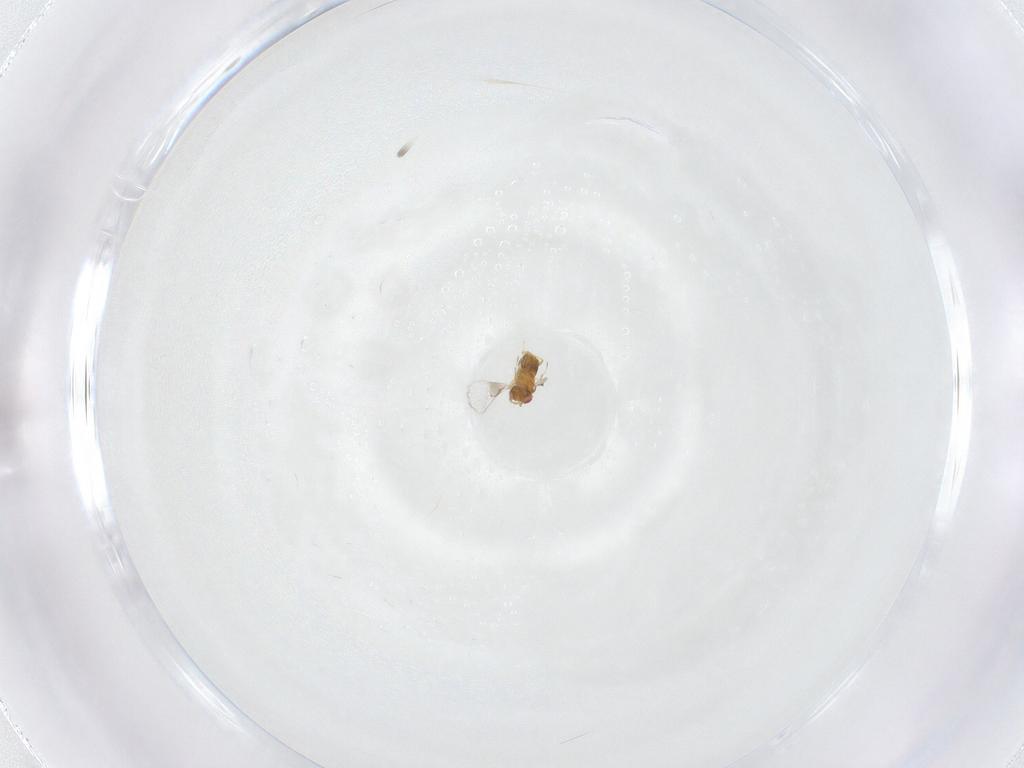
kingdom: Animalia
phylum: Arthropoda
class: Insecta
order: Hymenoptera
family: Trichogrammatidae
